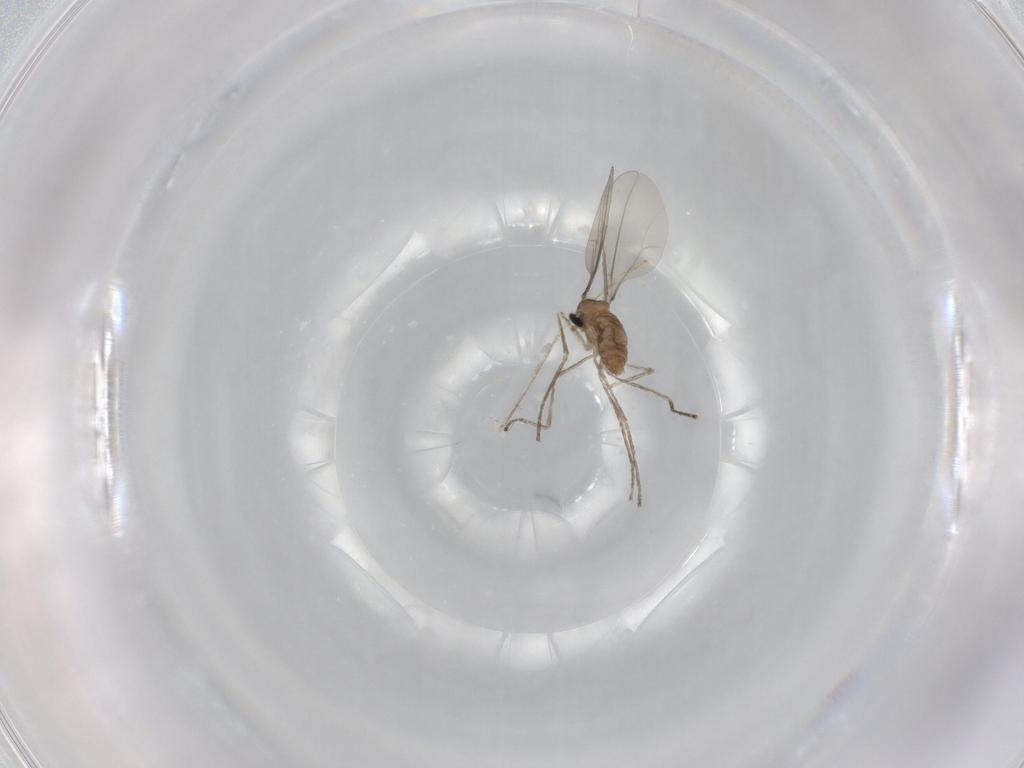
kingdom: Animalia
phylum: Arthropoda
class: Insecta
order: Diptera
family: Cecidomyiidae
